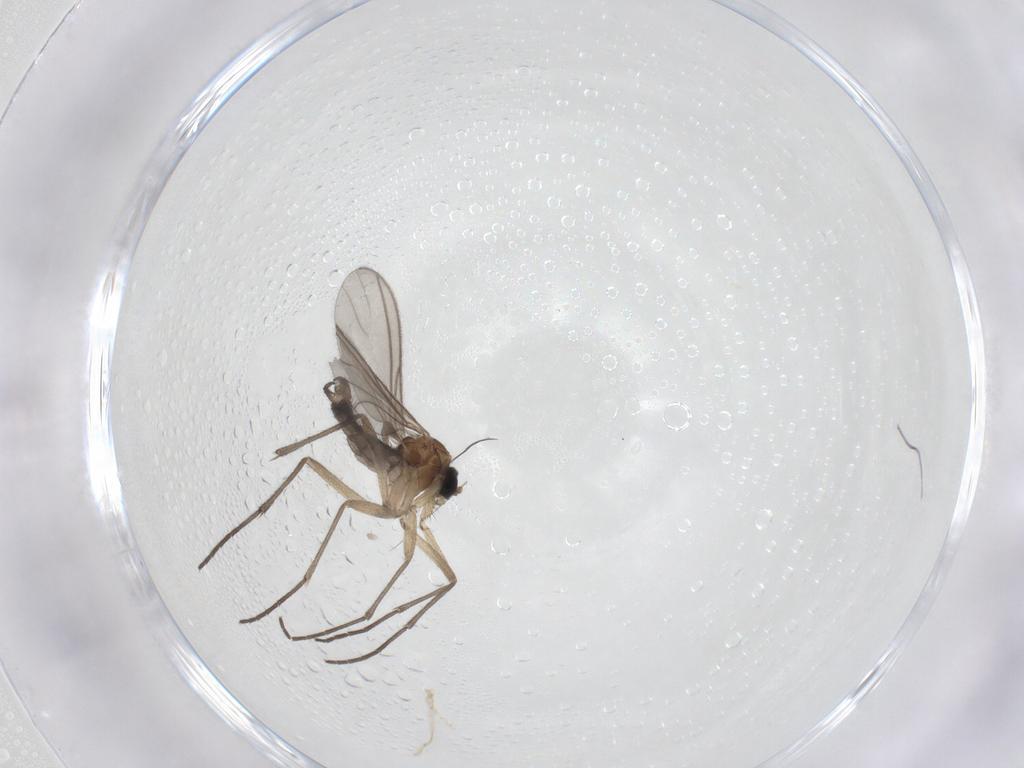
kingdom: Animalia
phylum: Arthropoda
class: Insecta
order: Diptera
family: Sciaridae
